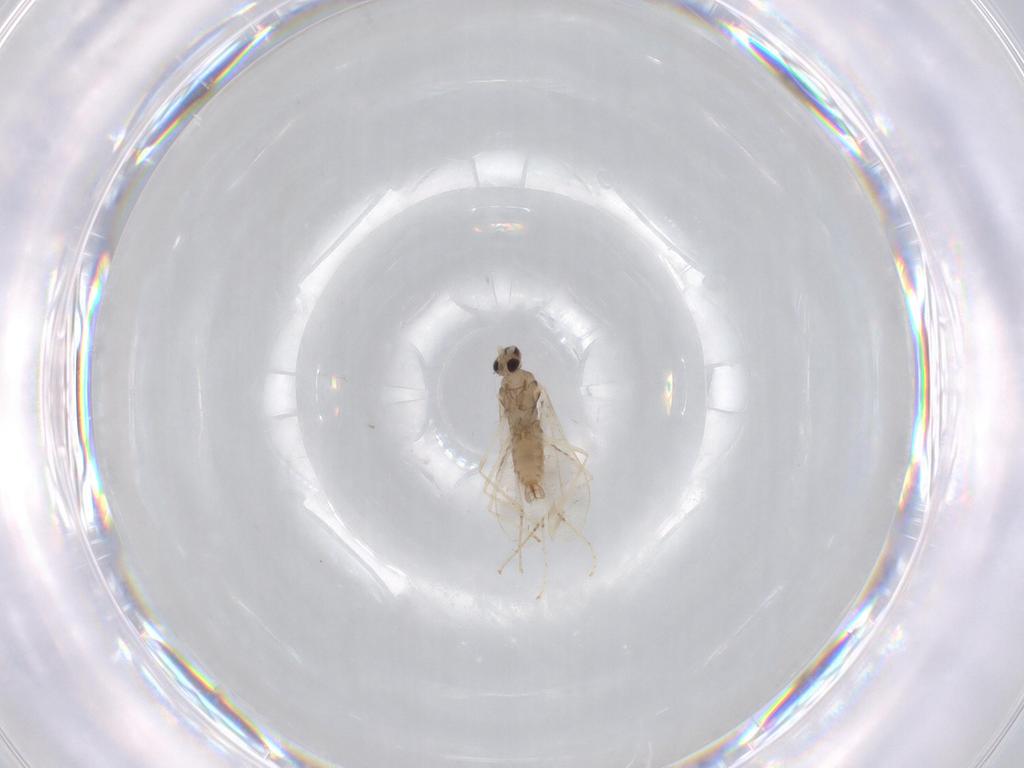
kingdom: Animalia
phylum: Arthropoda
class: Insecta
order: Diptera
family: Cecidomyiidae
